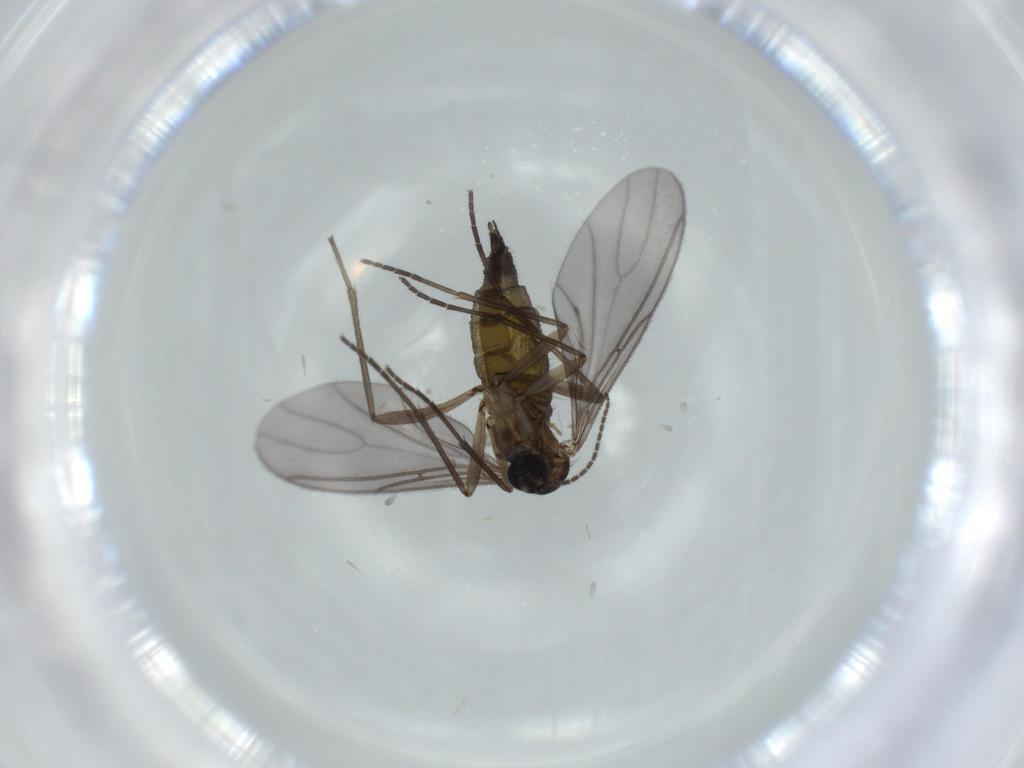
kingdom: Animalia
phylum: Arthropoda
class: Insecta
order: Diptera
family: Sciaridae
